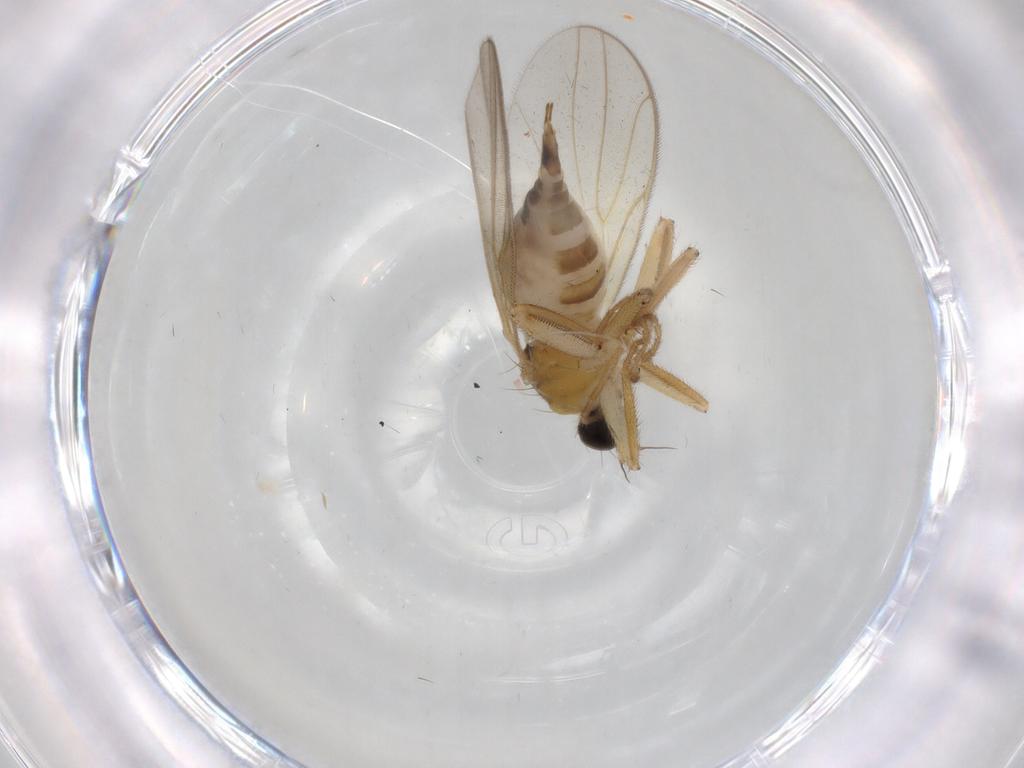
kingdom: Animalia
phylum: Arthropoda
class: Insecta
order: Diptera
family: Hybotidae
